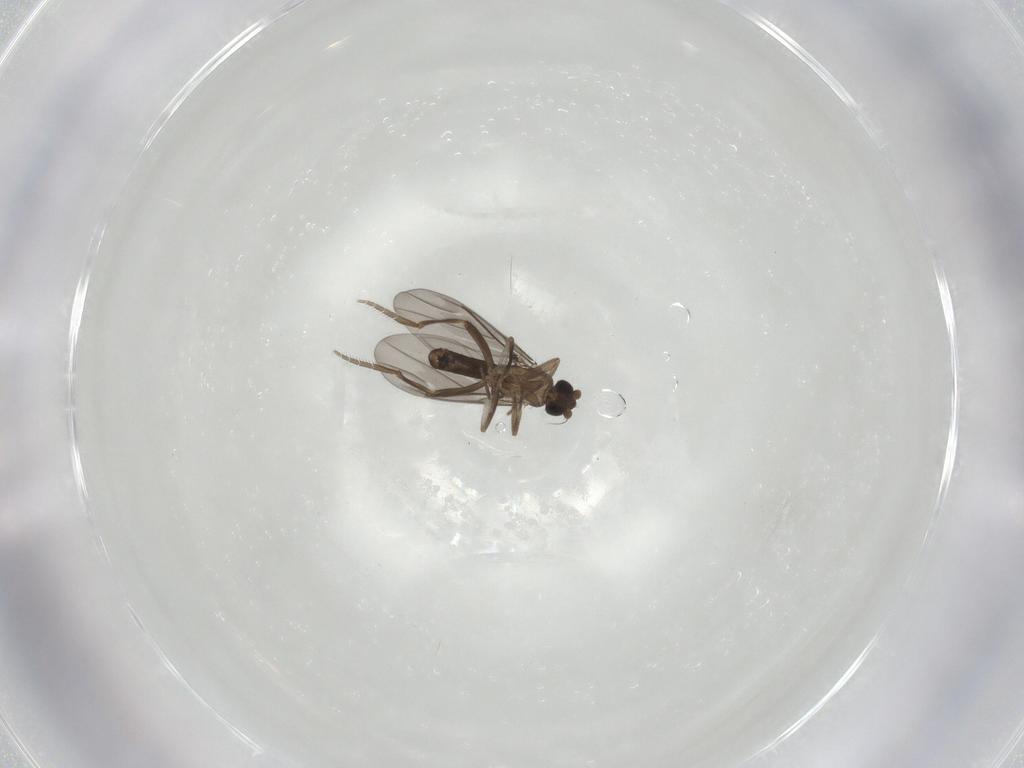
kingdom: Animalia
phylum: Arthropoda
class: Insecta
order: Diptera
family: Phoridae
